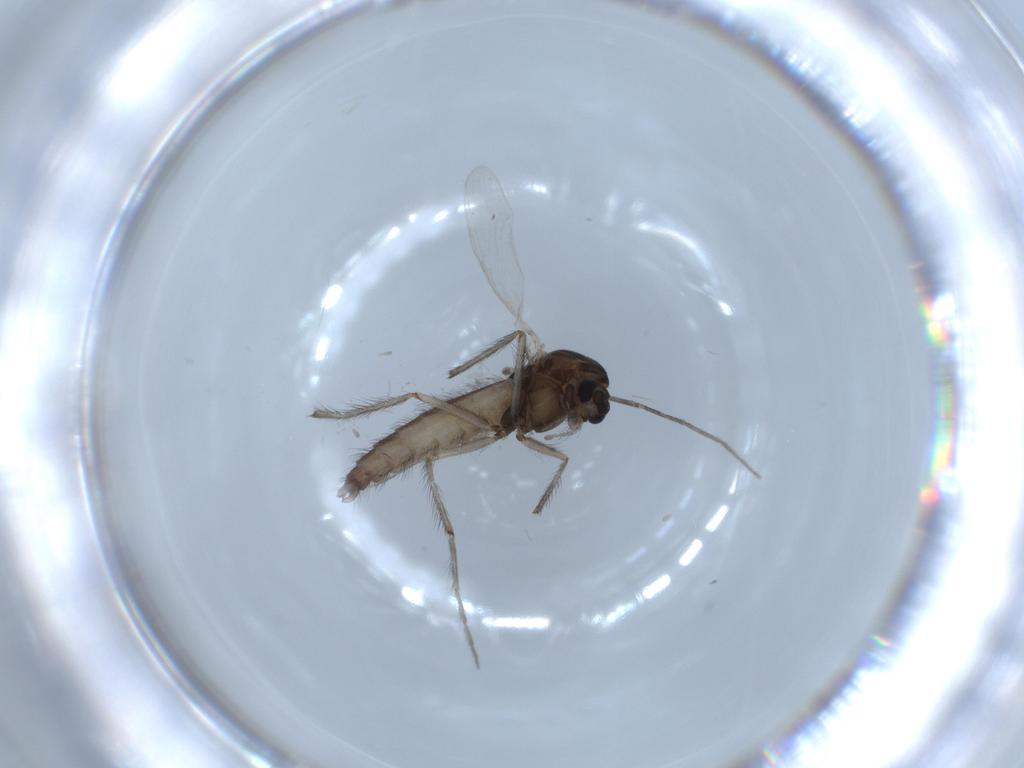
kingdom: Animalia
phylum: Arthropoda
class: Insecta
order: Diptera
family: Chironomidae
